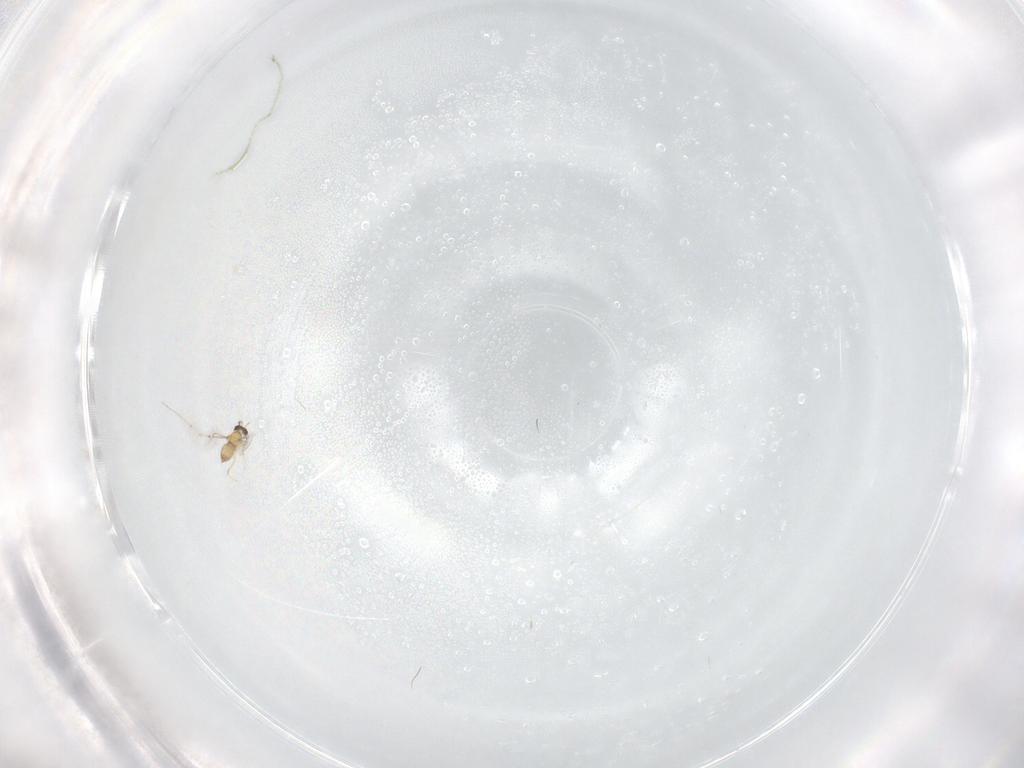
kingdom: Animalia
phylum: Arthropoda
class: Insecta
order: Hymenoptera
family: Mymaridae
